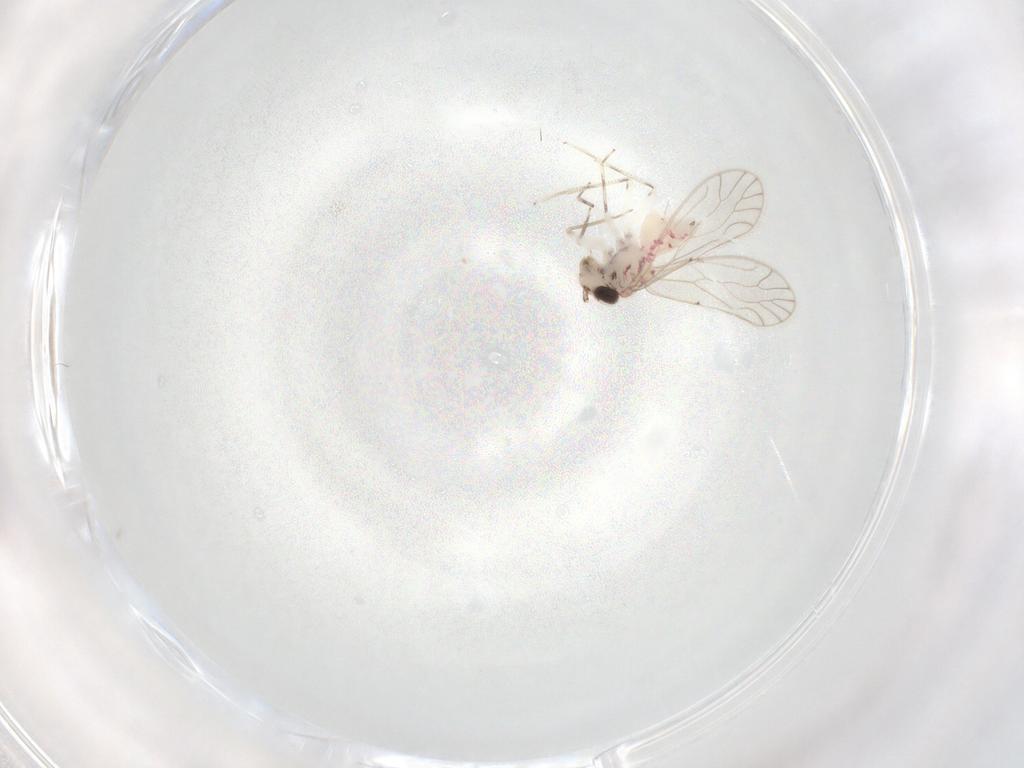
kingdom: Animalia
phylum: Arthropoda
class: Insecta
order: Psocodea
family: Caeciliusidae
